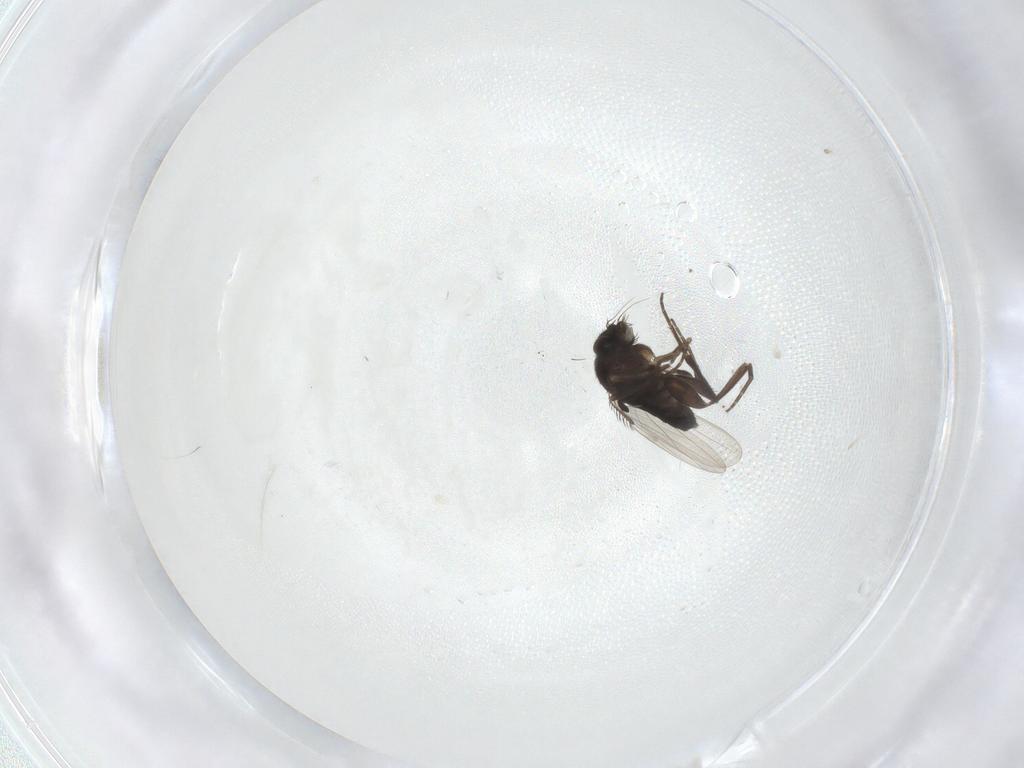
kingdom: Animalia
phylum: Arthropoda
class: Insecta
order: Diptera
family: Phoridae
